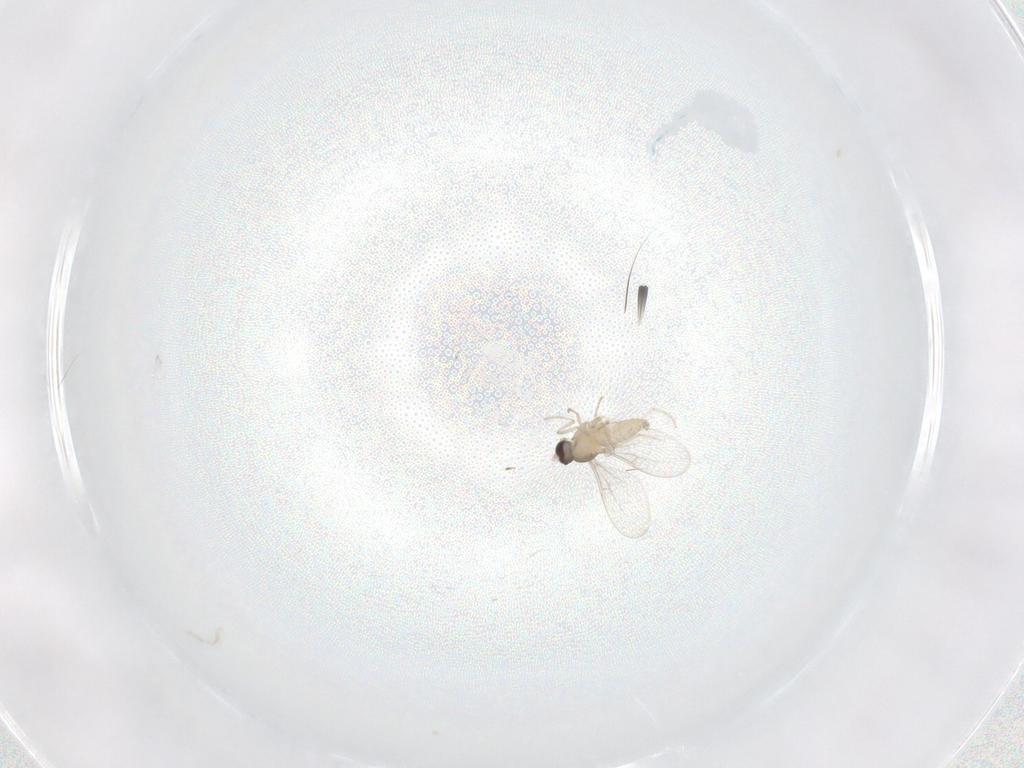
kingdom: Animalia
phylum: Arthropoda
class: Insecta
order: Diptera
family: Cecidomyiidae
